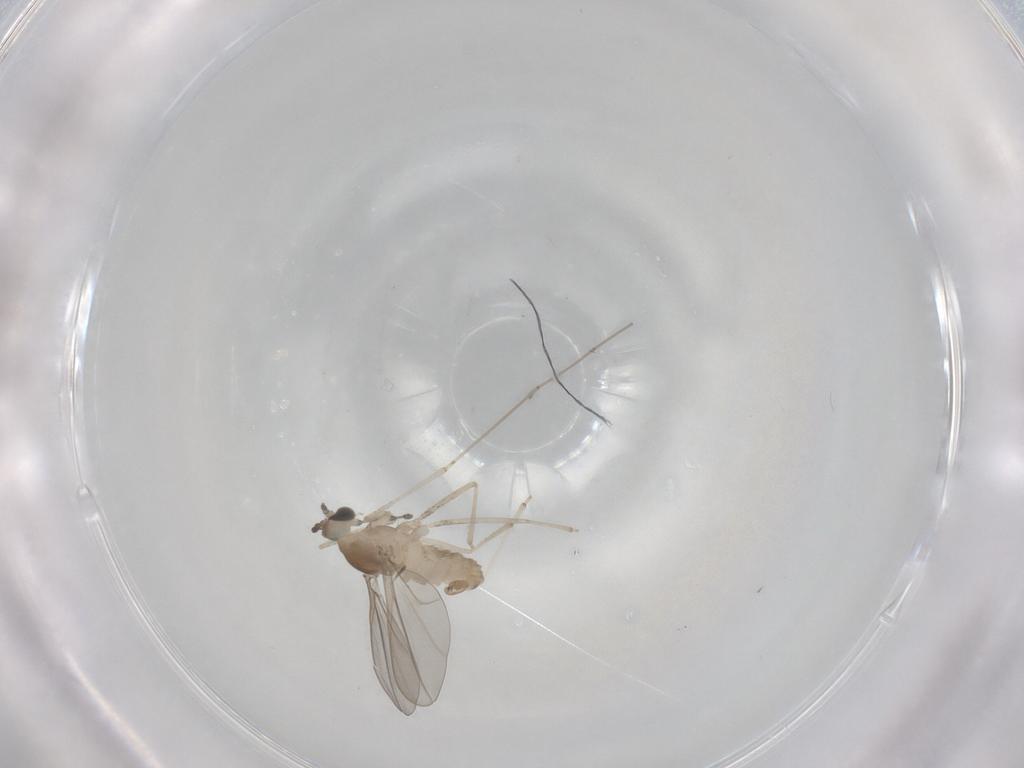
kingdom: Animalia
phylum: Arthropoda
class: Insecta
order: Diptera
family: Cecidomyiidae
